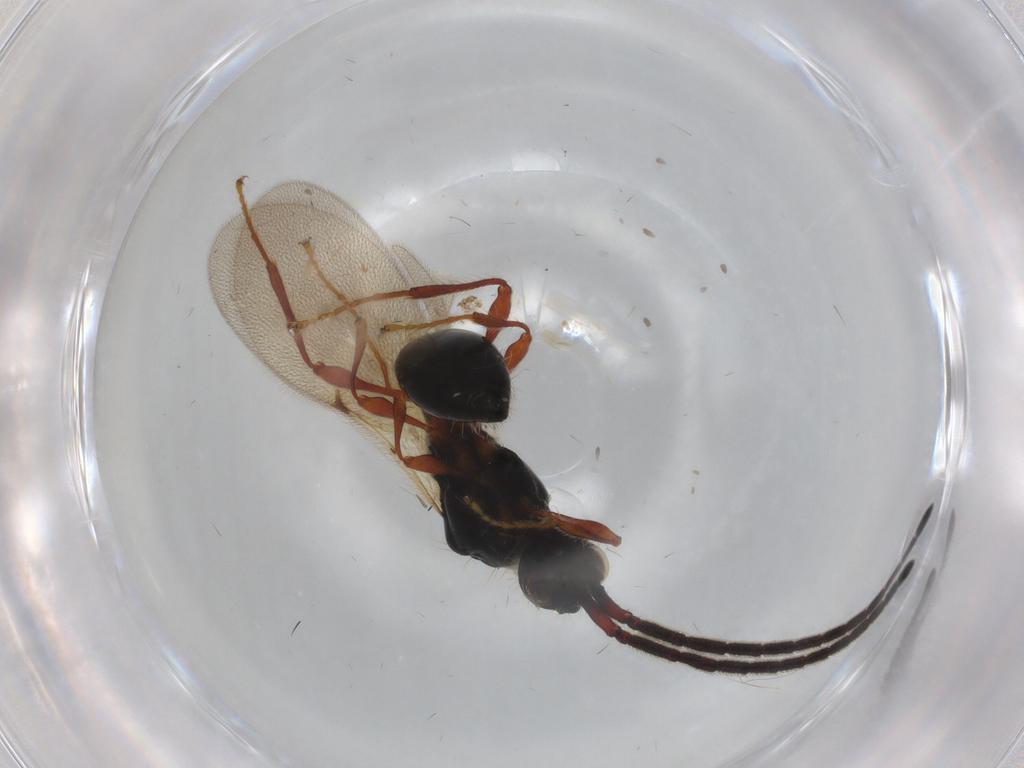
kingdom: Animalia
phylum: Arthropoda
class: Insecta
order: Hymenoptera
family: Diapriidae
